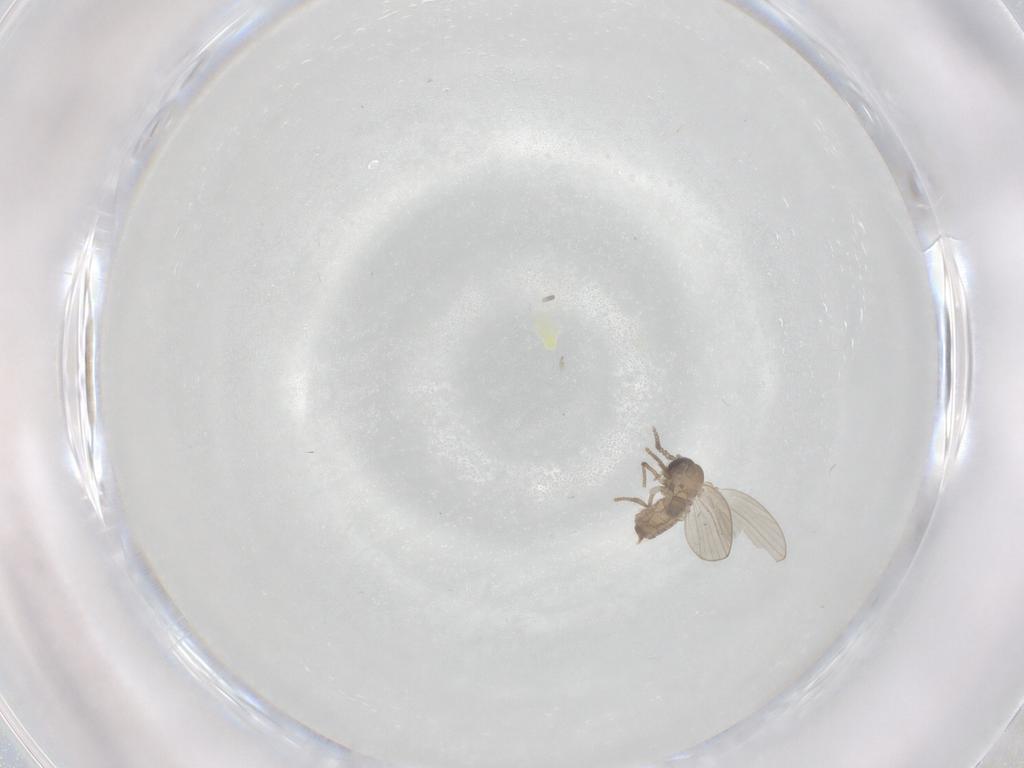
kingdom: Animalia
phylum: Arthropoda
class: Insecta
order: Diptera
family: Psychodidae
